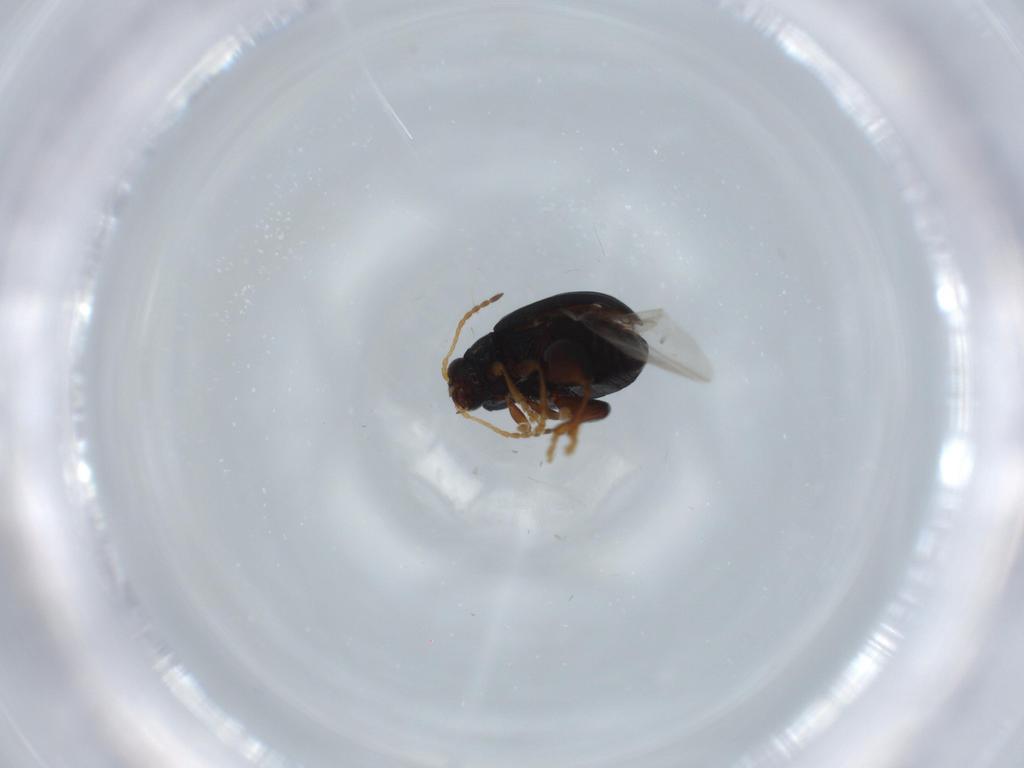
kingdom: Animalia
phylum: Arthropoda
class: Insecta
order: Coleoptera
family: Chrysomelidae
